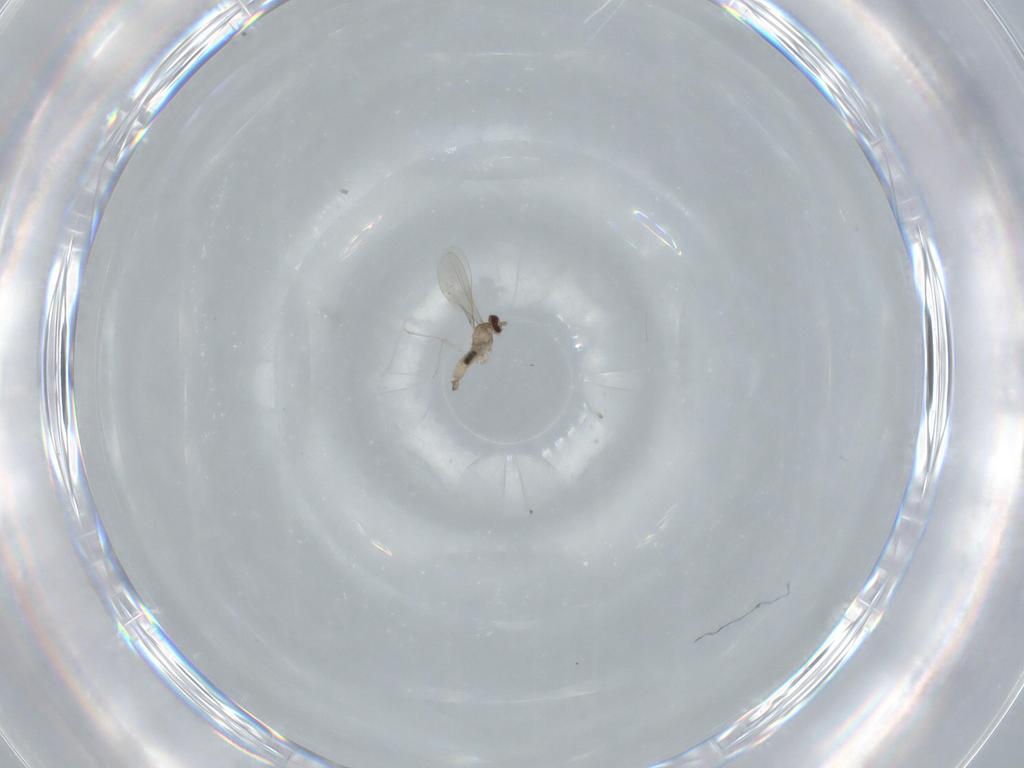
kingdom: Animalia
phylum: Arthropoda
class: Insecta
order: Diptera
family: Cecidomyiidae
